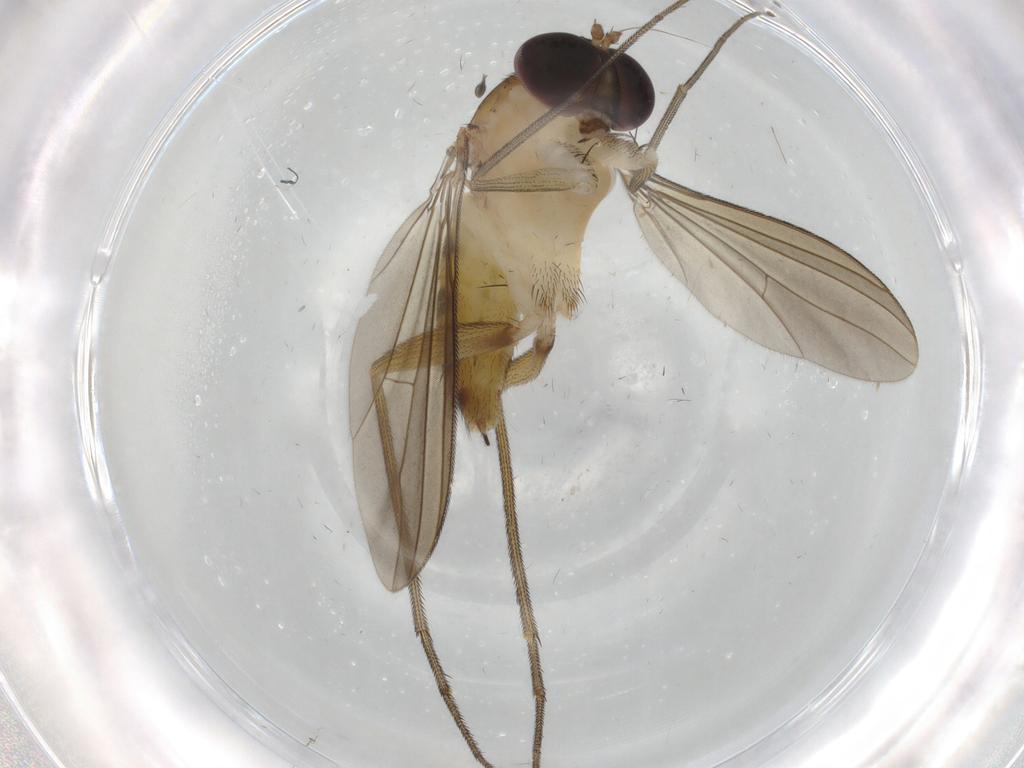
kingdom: Animalia
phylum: Arthropoda
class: Insecta
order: Diptera
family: Dolichopodidae
